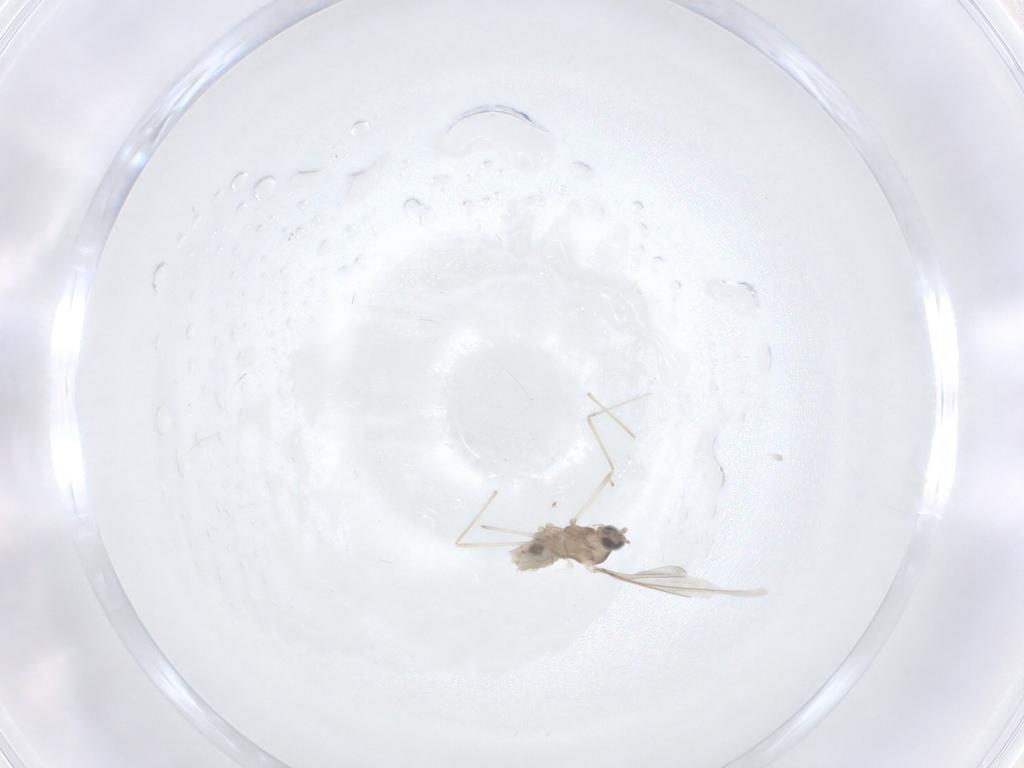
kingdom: Animalia
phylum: Arthropoda
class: Insecta
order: Diptera
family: Cecidomyiidae
